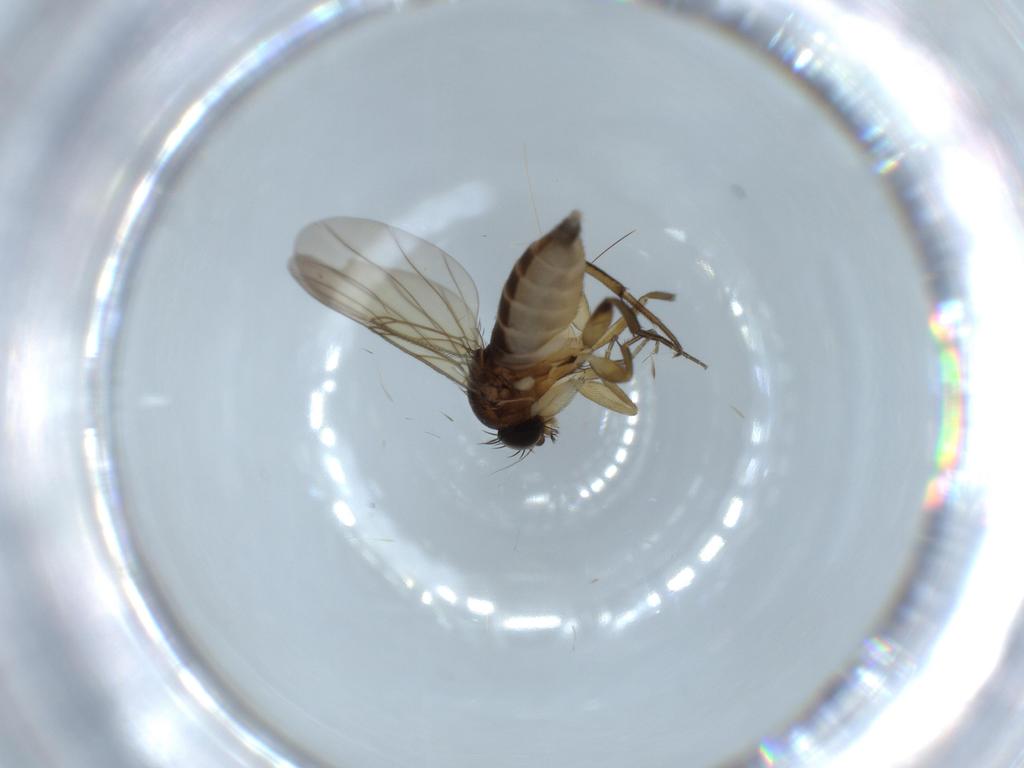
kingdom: Animalia
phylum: Arthropoda
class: Insecta
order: Diptera
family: Phoridae
